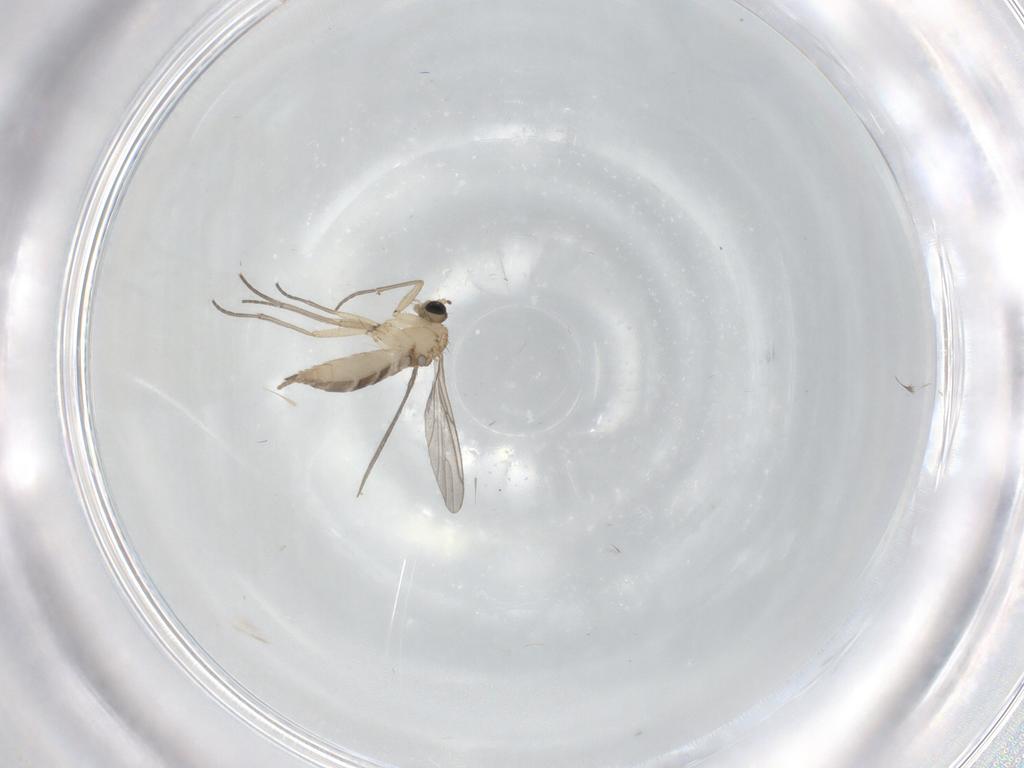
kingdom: Animalia
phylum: Arthropoda
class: Insecta
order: Diptera
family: Sciaridae
